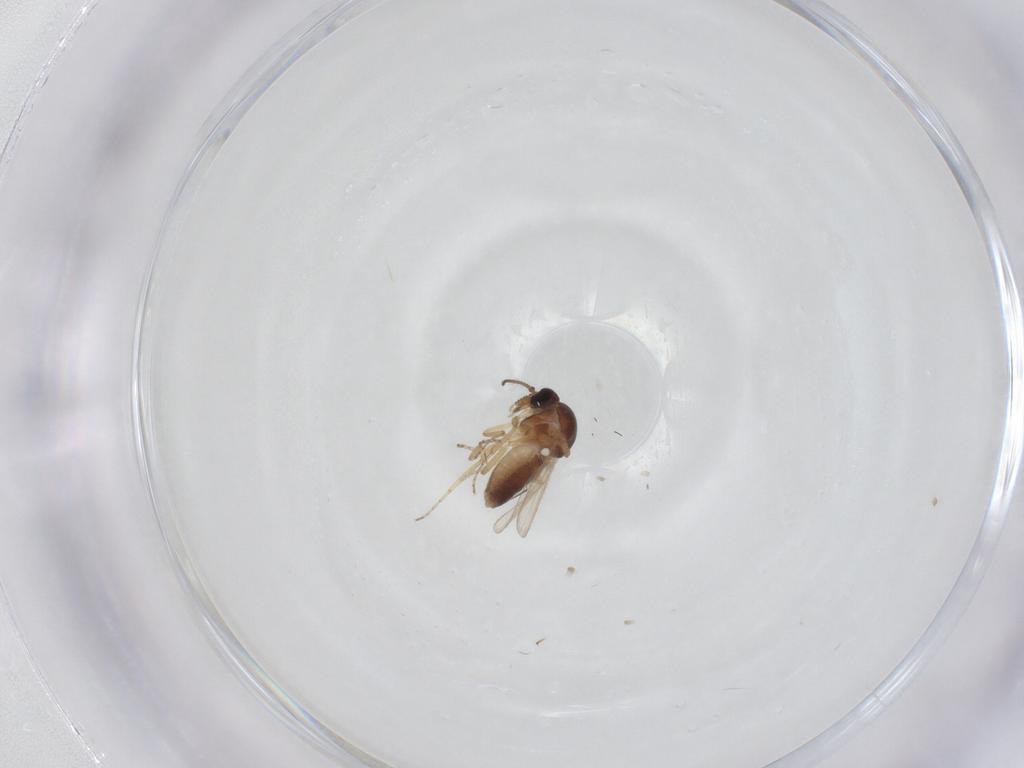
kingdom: Animalia
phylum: Arthropoda
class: Insecta
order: Diptera
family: Ceratopogonidae
